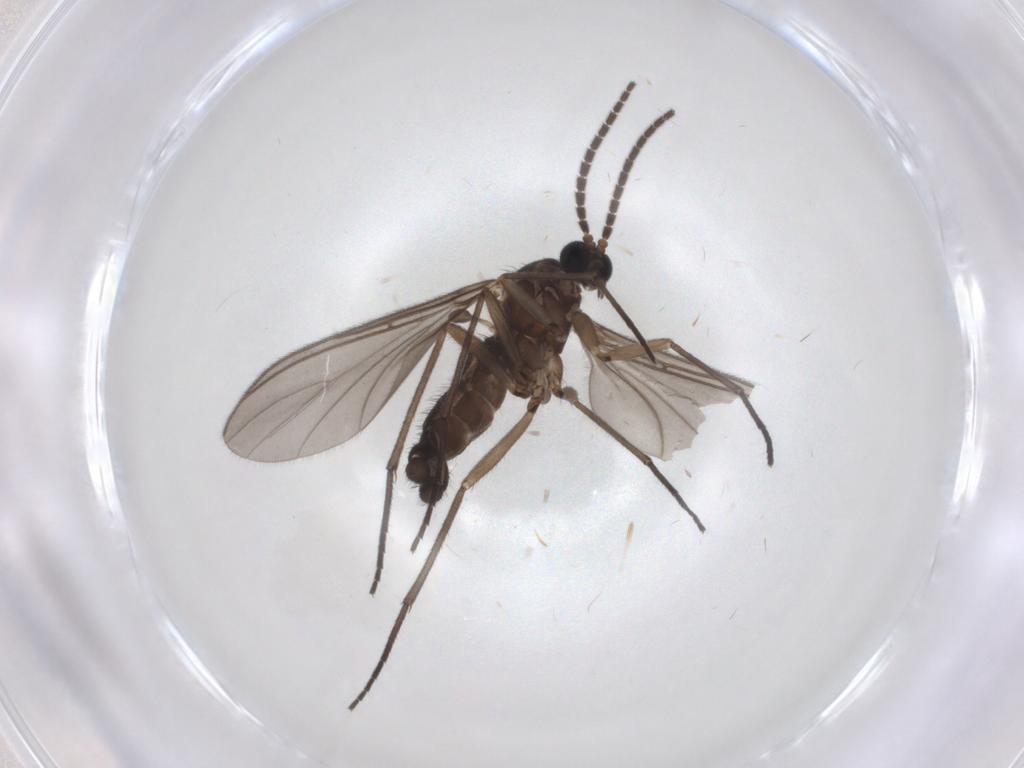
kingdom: Animalia
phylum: Arthropoda
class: Insecta
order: Diptera
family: Sciaridae
